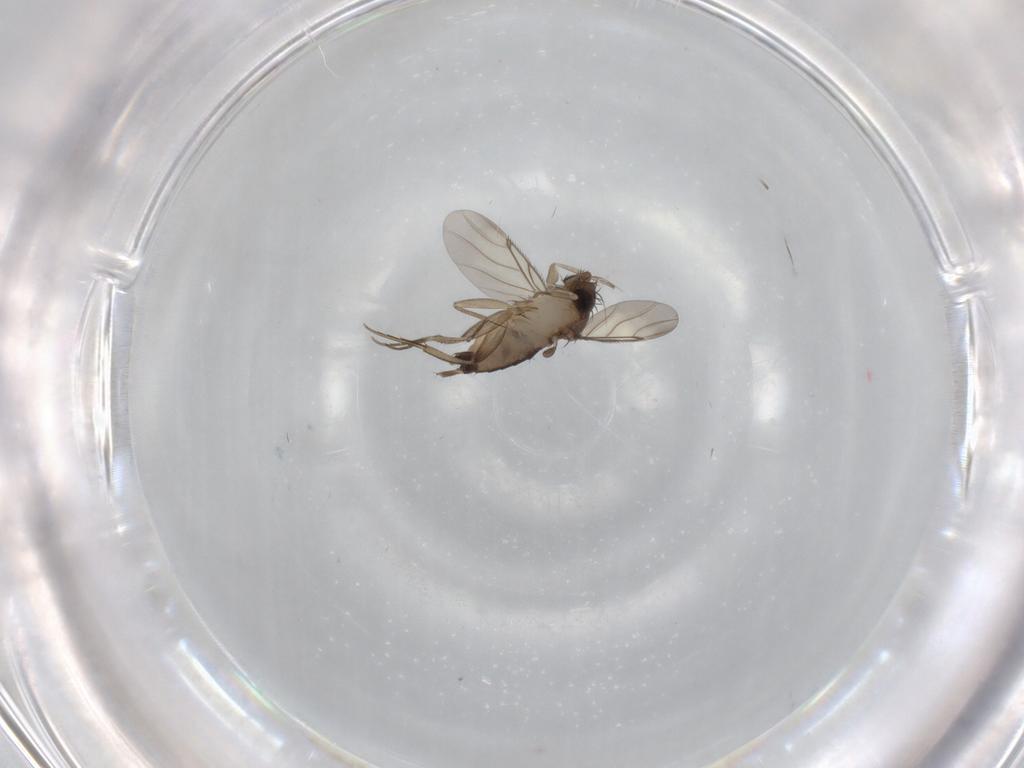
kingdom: Animalia
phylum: Arthropoda
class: Insecta
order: Diptera
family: Phoridae
